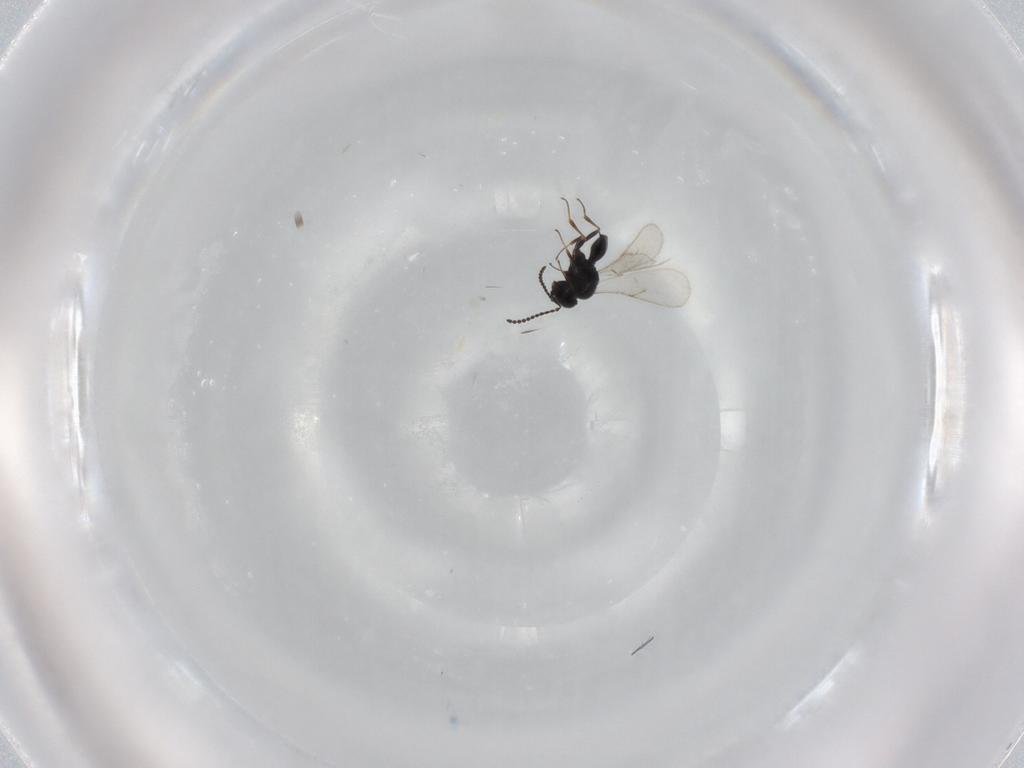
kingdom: Animalia
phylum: Arthropoda
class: Insecta
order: Hymenoptera
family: Scelionidae
